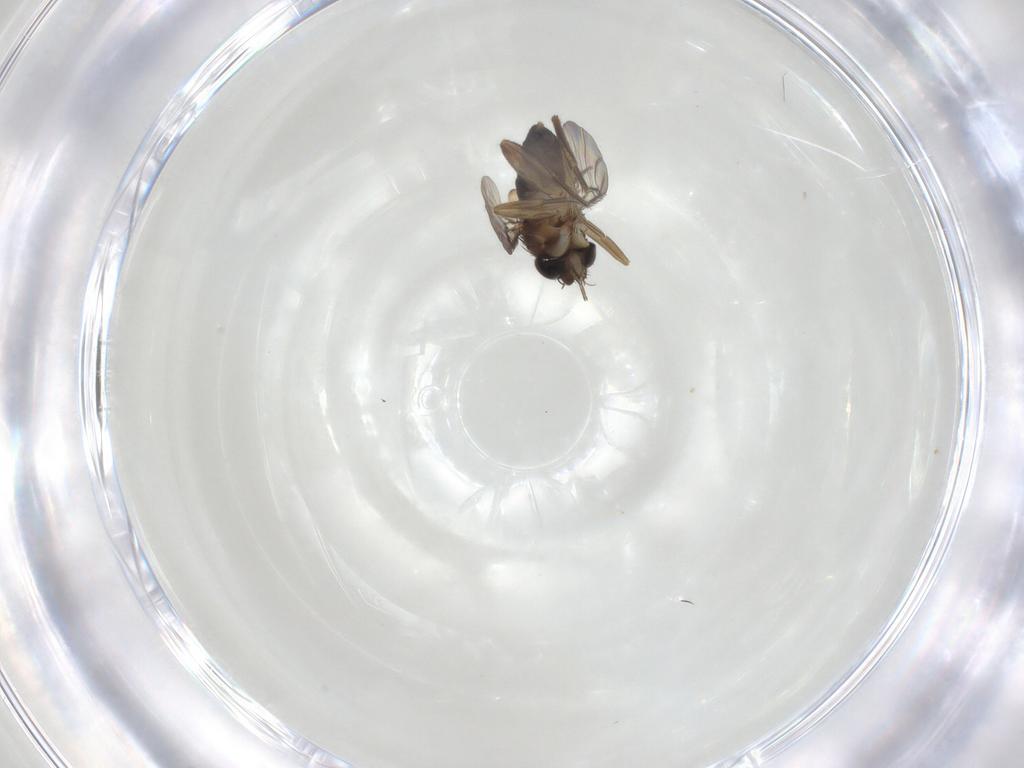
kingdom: Animalia
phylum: Arthropoda
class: Insecta
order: Diptera
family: Phoridae
